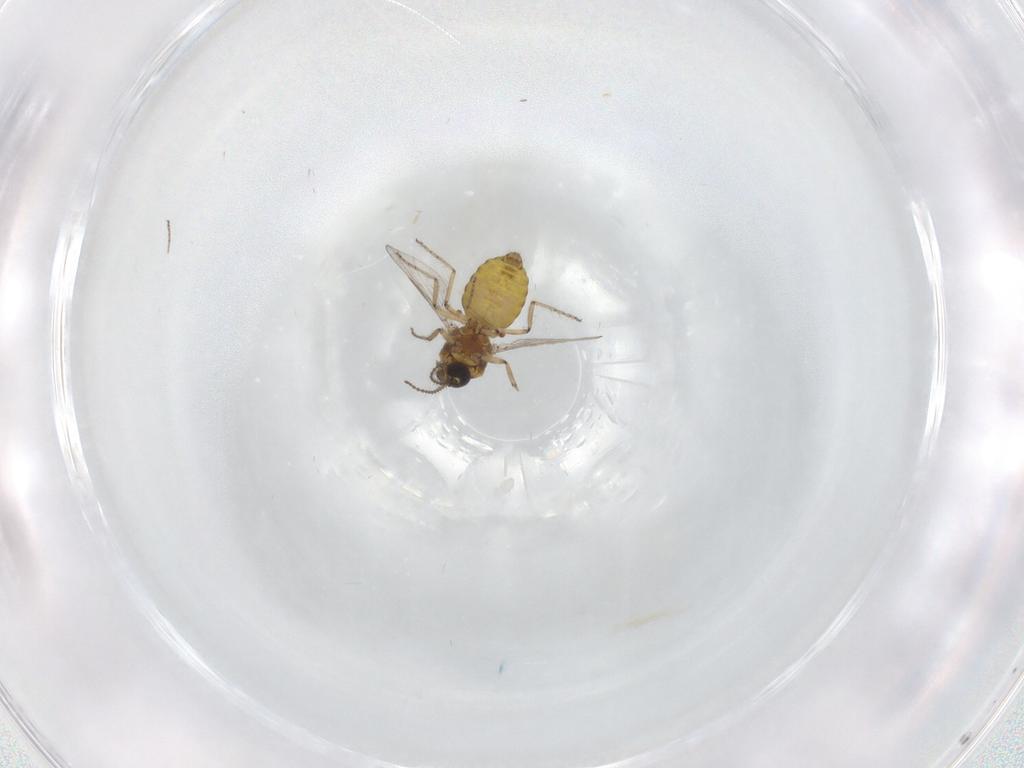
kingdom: Animalia
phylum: Arthropoda
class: Insecta
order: Diptera
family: Ceratopogonidae
